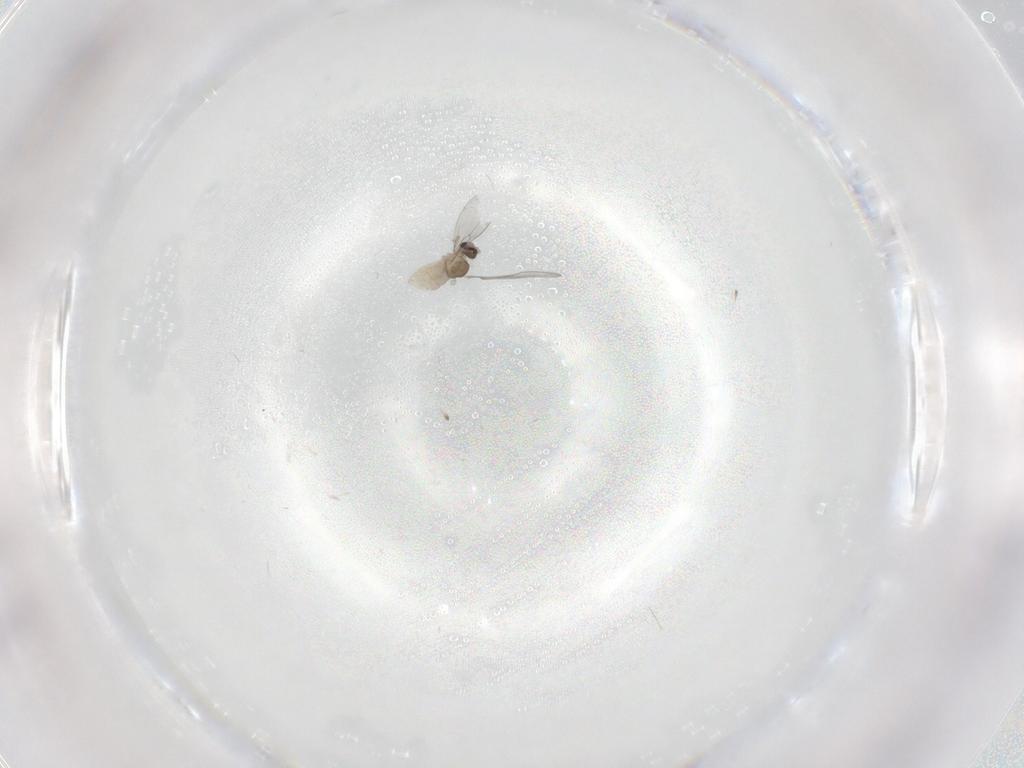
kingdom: Animalia
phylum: Arthropoda
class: Insecta
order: Diptera
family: Cecidomyiidae
